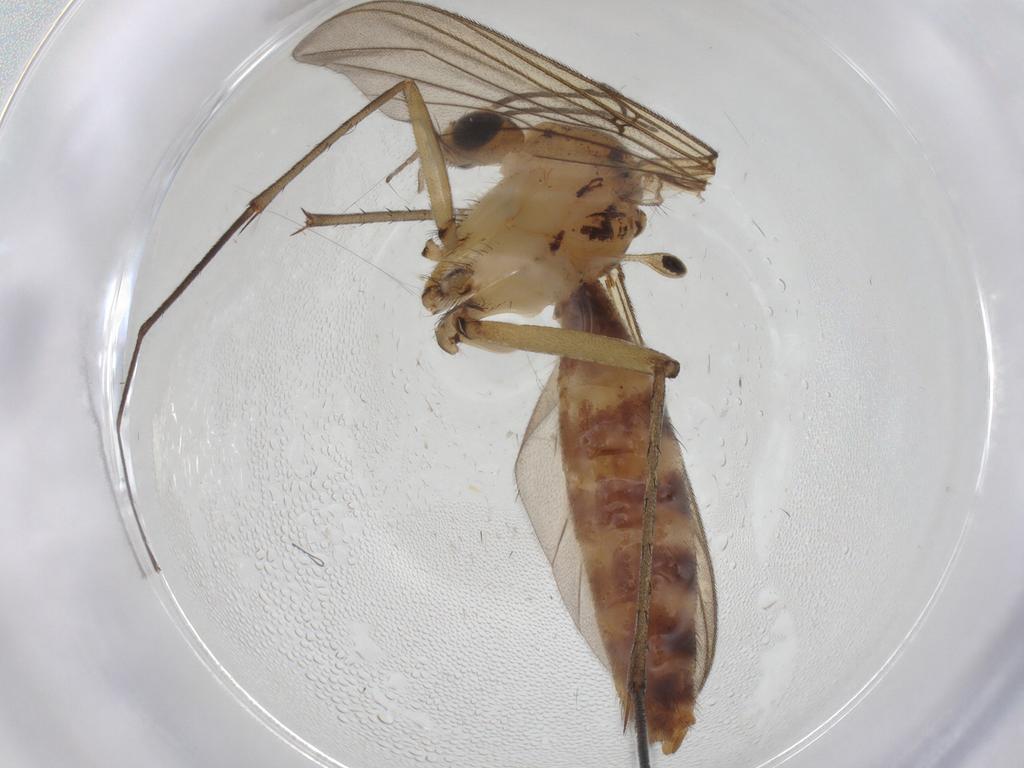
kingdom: Animalia
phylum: Arthropoda
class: Insecta
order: Diptera
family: Mycetophilidae
